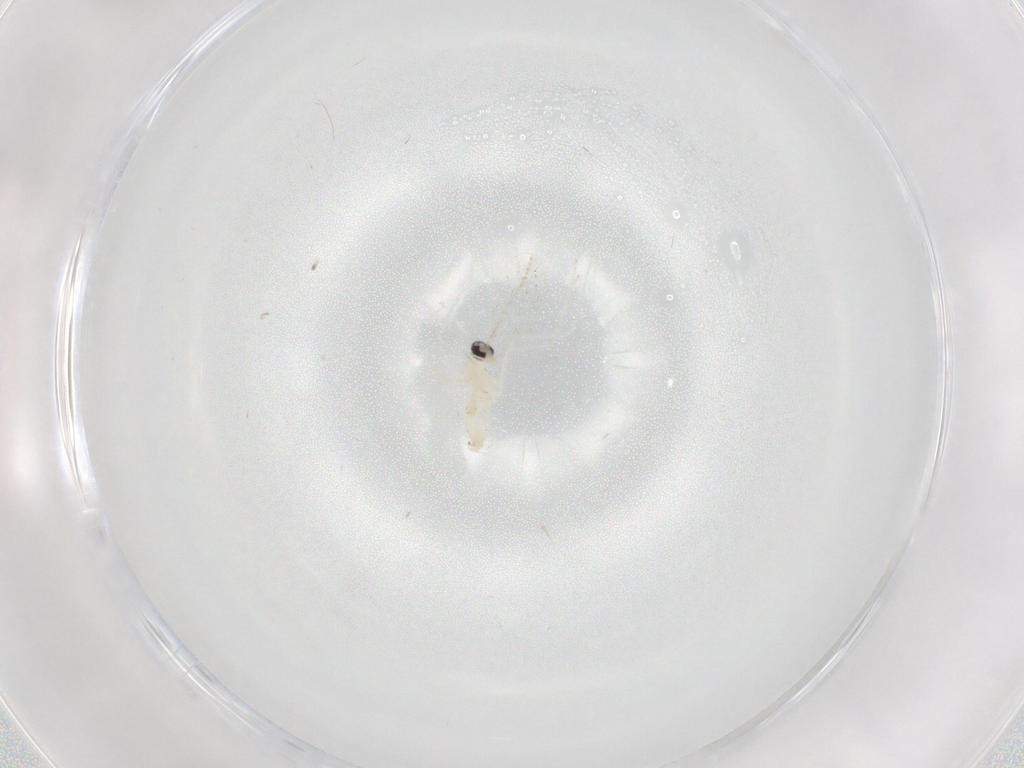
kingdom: Animalia
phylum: Arthropoda
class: Insecta
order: Diptera
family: Cecidomyiidae
